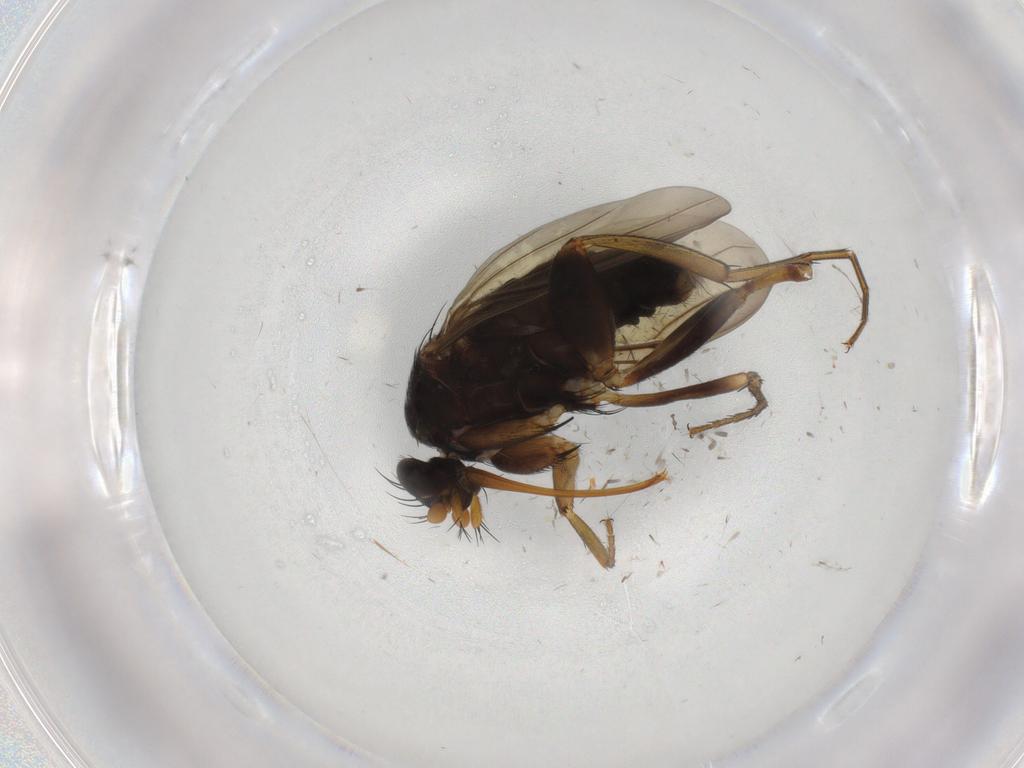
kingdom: Animalia
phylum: Arthropoda
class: Insecta
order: Diptera
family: Phoridae
